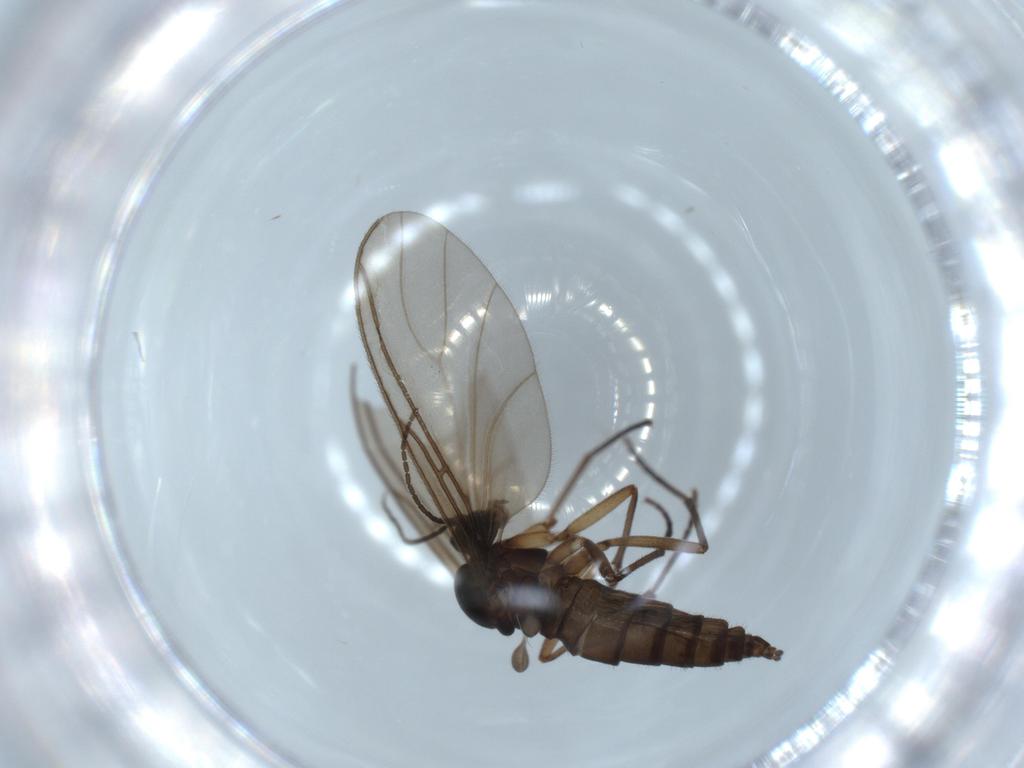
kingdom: Animalia
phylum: Arthropoda
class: Insecta
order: Diptera
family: Sciaridae
